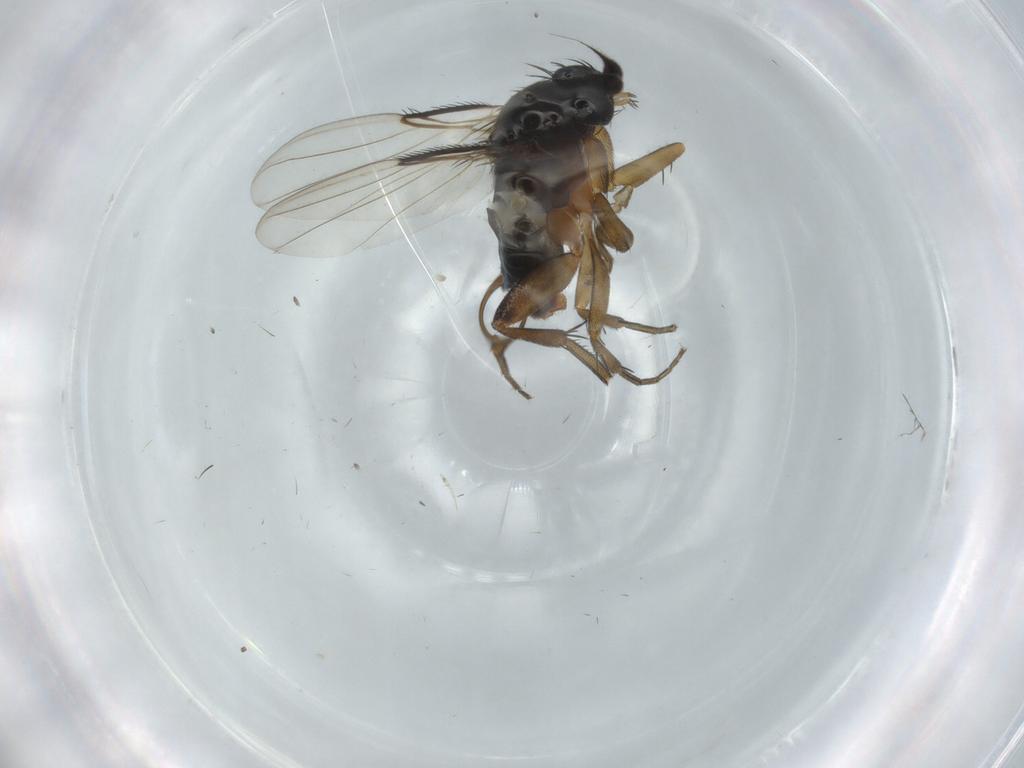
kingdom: Animalia
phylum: Arthropoda
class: Insecta
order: Diptera
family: Phoridae
